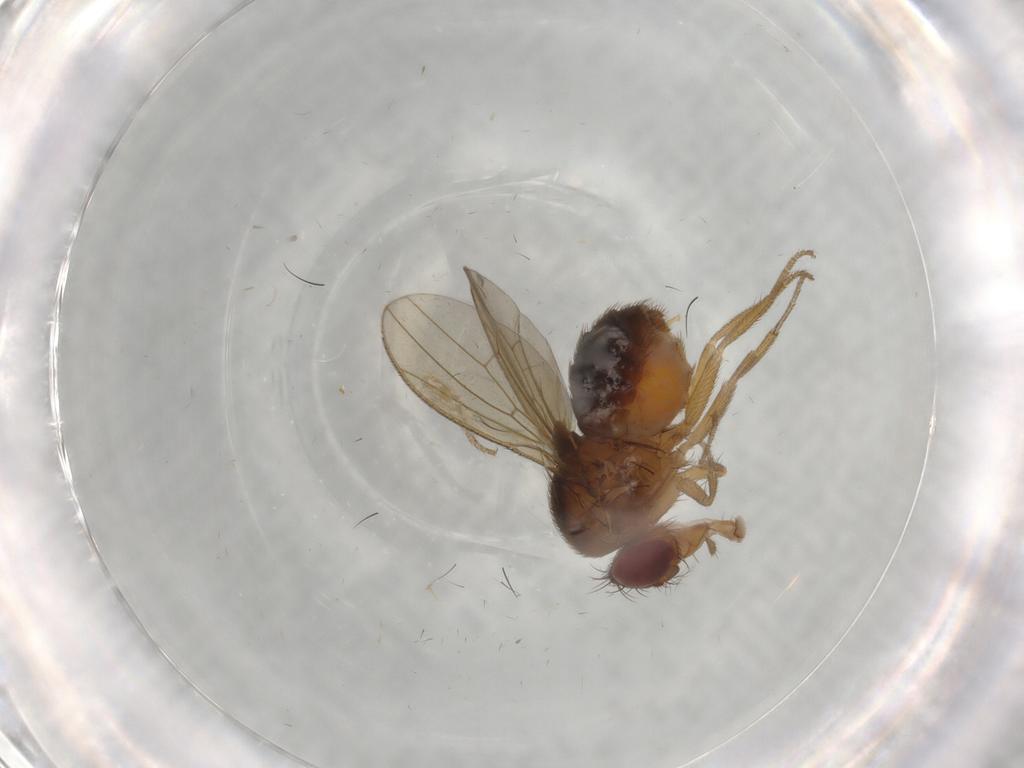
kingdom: Animalia
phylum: Arthropoda
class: Insecta
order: Diptera
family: Drosophilidae
